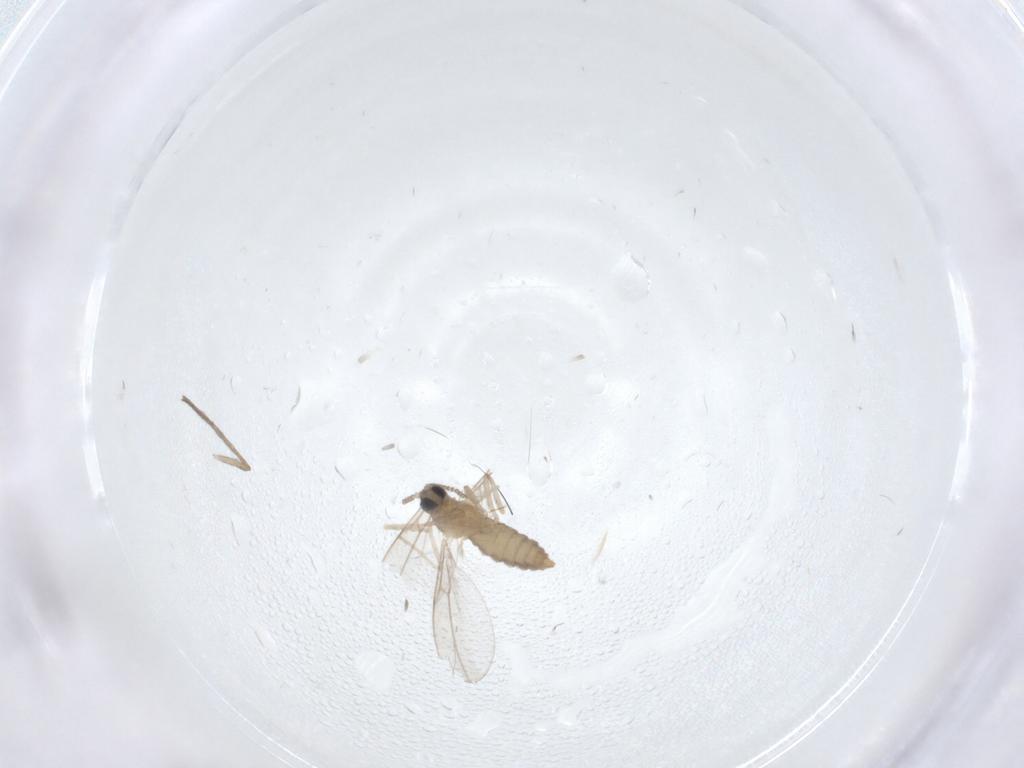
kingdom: Animalia
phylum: Arthropoda
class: Insecta
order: Diptera
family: Cecidomyiidae
